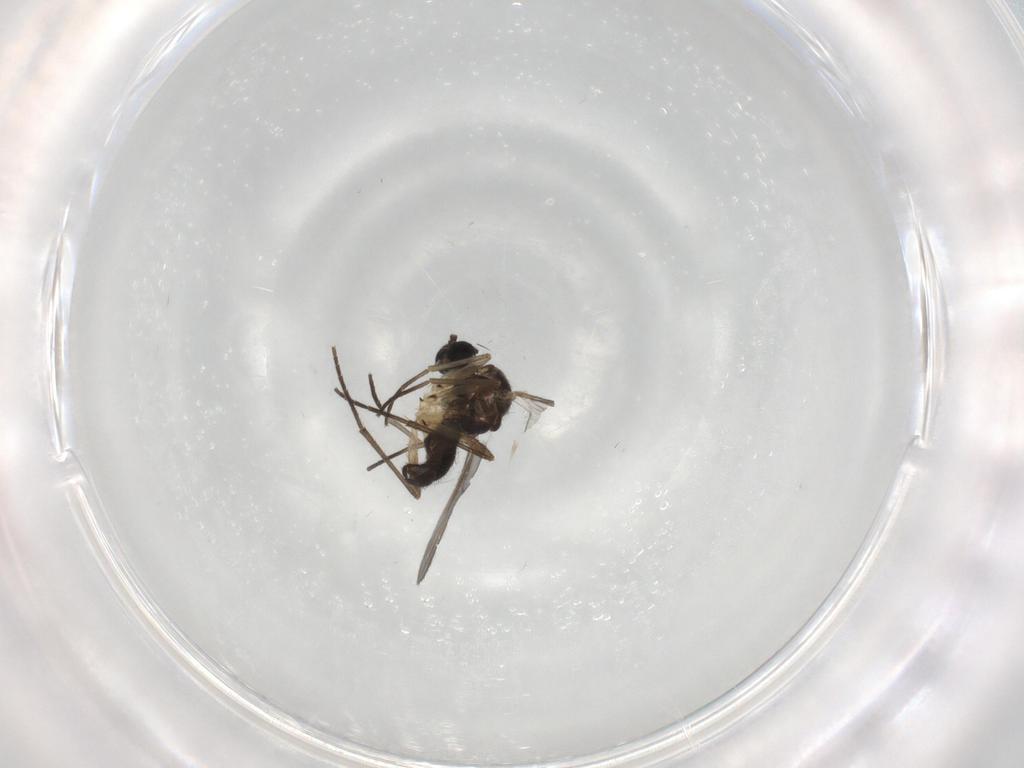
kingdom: Animalia
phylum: Arthropoda
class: Insecta
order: Diptera
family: Sciaridae
